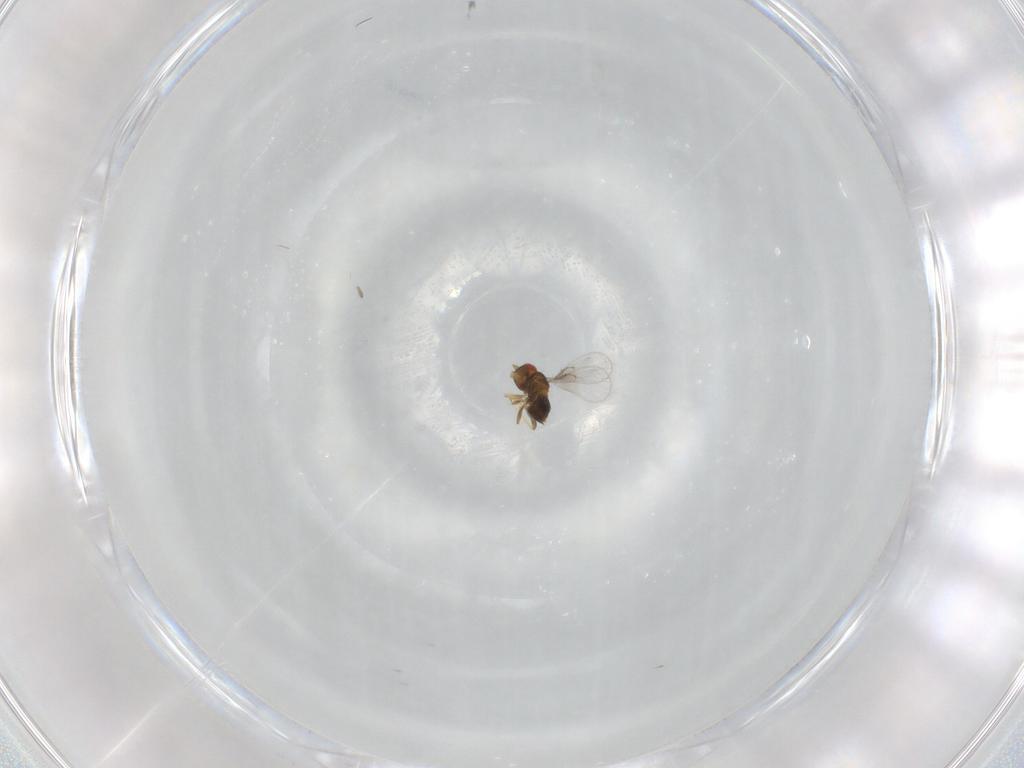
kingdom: Animalia
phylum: Arthropoda
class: Insecta
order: Hymenoptera
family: Trichogrammatidae
